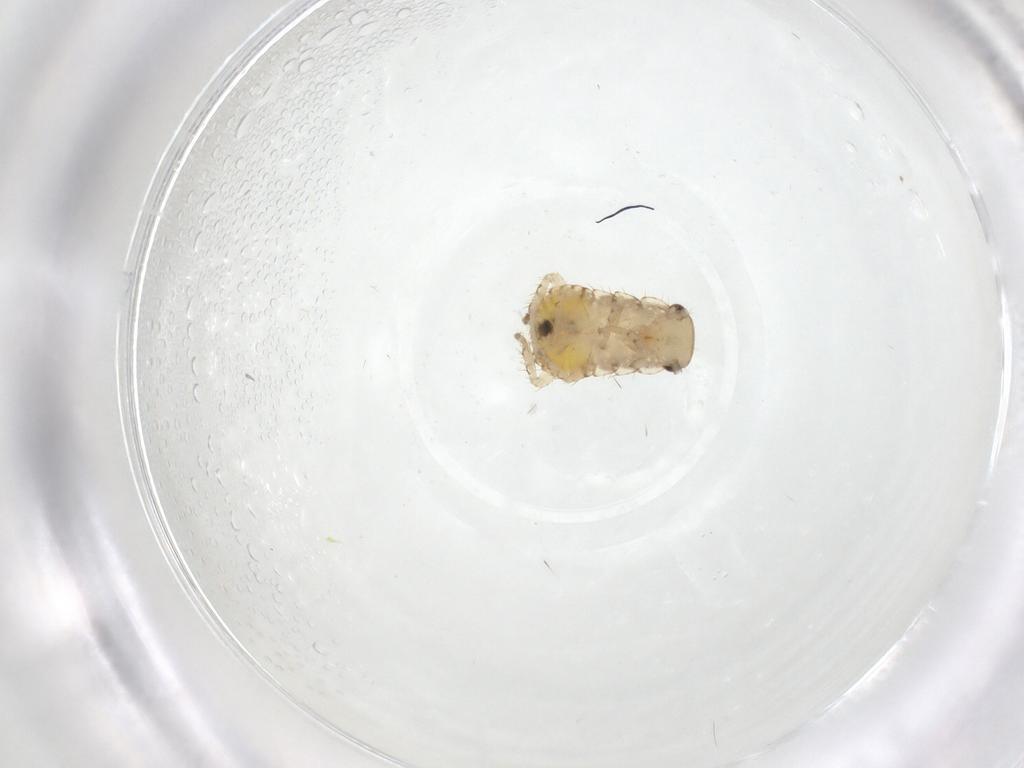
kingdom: Animalia
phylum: Arthropoda
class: Insecta
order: Blattodea
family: Ectobiidae
